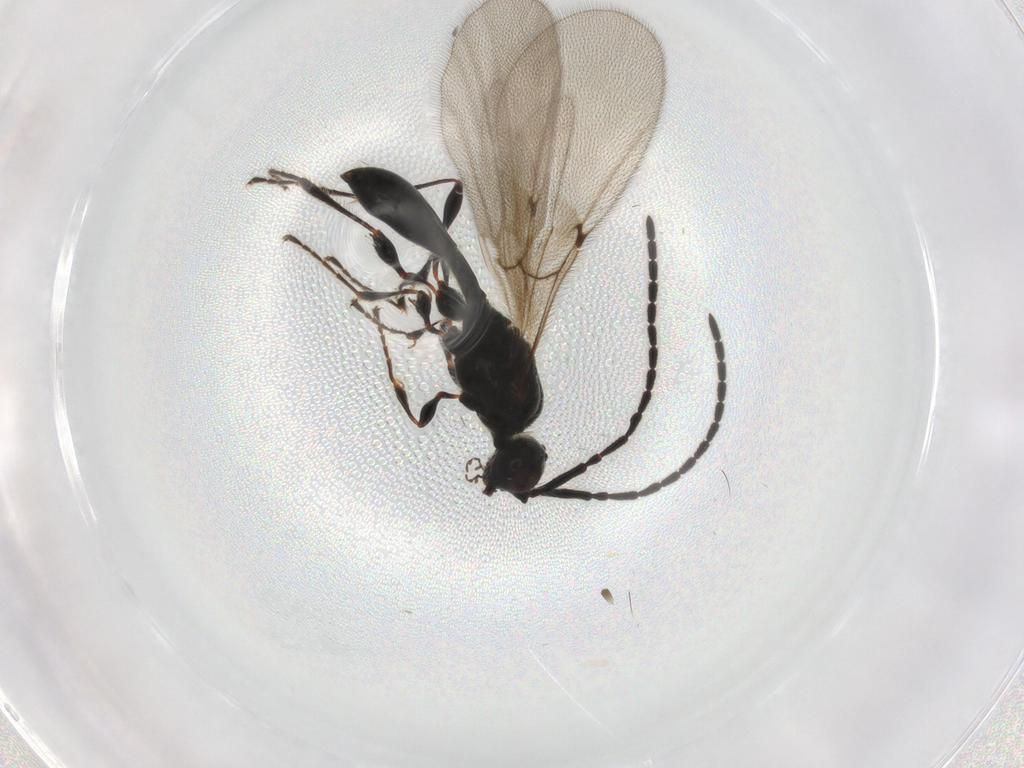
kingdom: Animalia
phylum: Arthropoda
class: Insecta
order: Hymenoptera
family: Diapriidae
